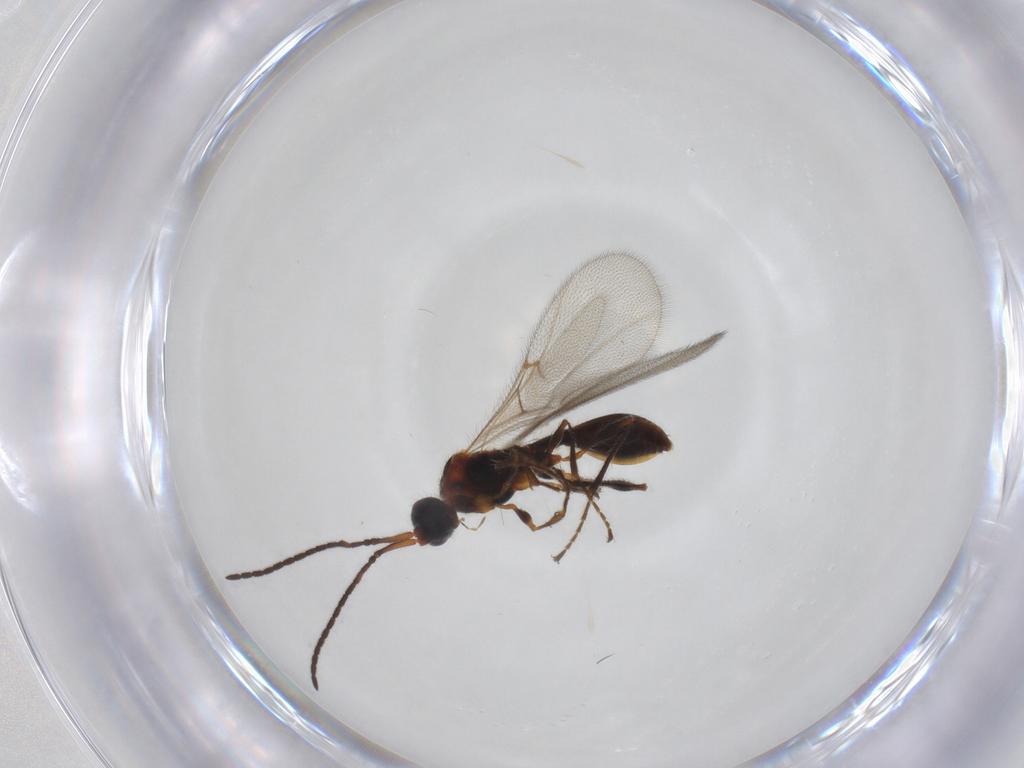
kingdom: Animalia
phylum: Arthropoda
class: Insecta
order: Hymenoptera
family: Diapriidae
